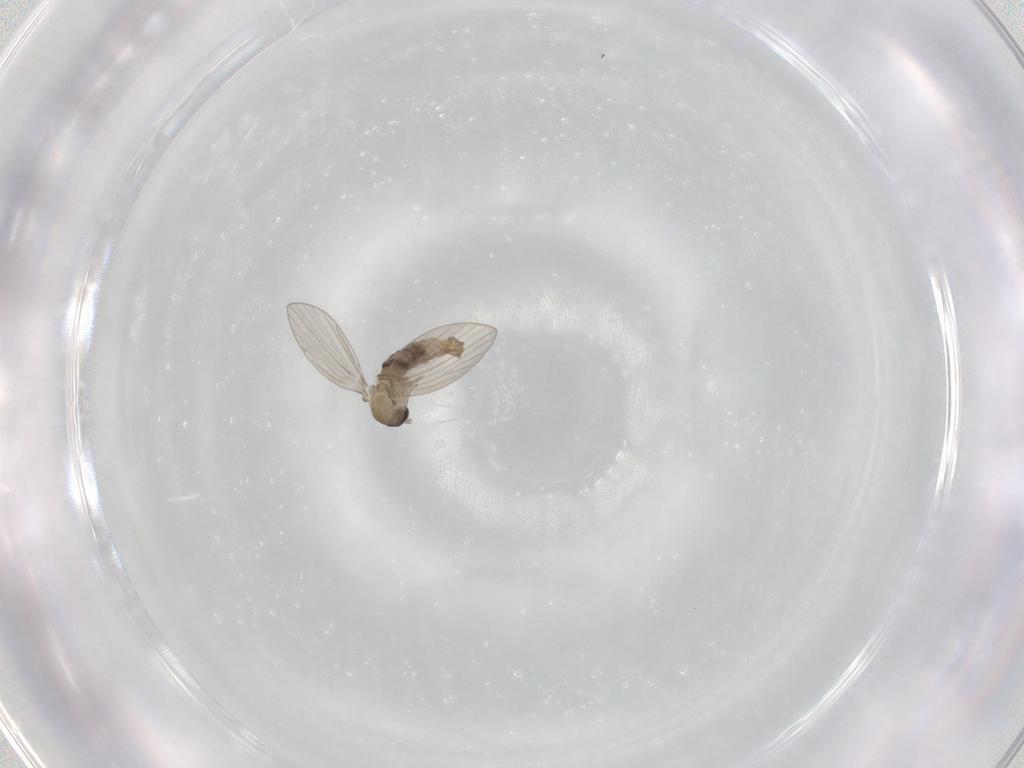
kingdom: Animalia
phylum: Arthropoda
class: Insecta
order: Diptera
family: Psychodidae
